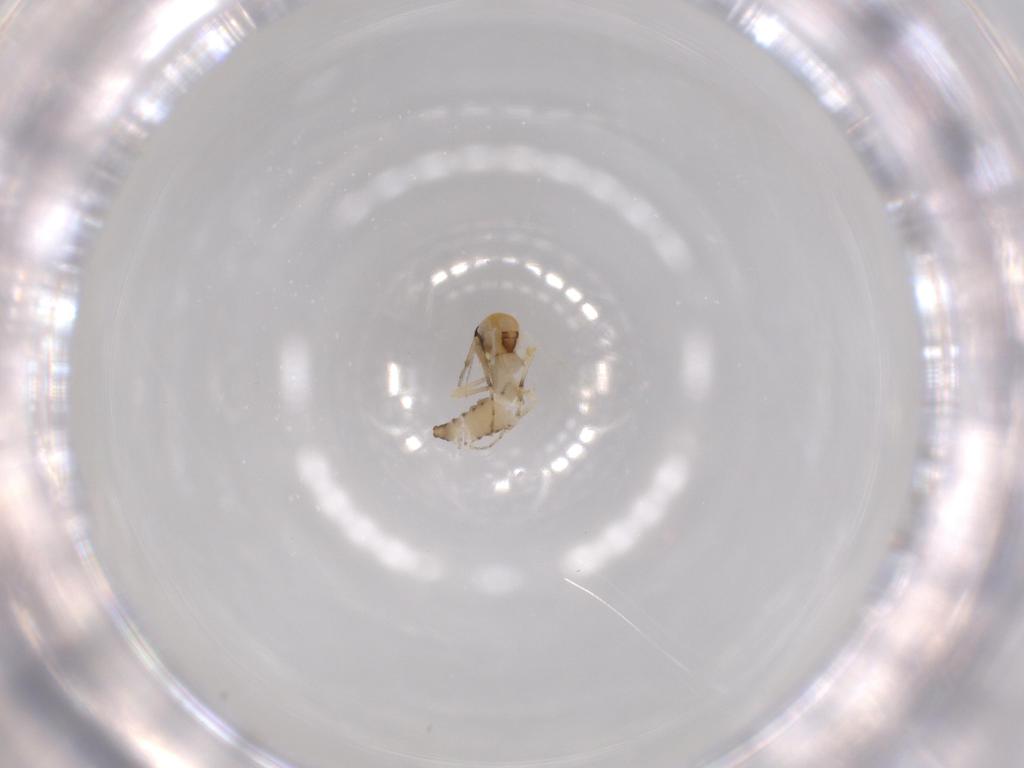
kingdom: Animalia
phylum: Arthropoda
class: Insecta
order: Diptera
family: Ceratopogonidae
